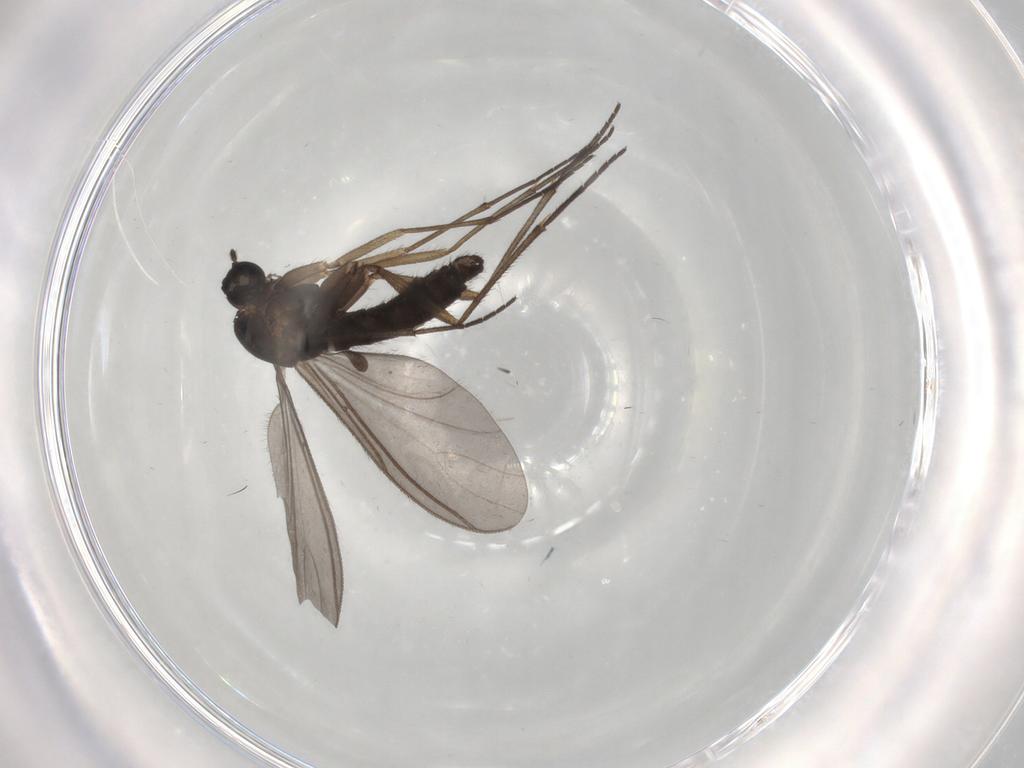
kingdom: Animalia
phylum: Arthropoda
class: Insecta
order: Diptera
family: Sciaridae
